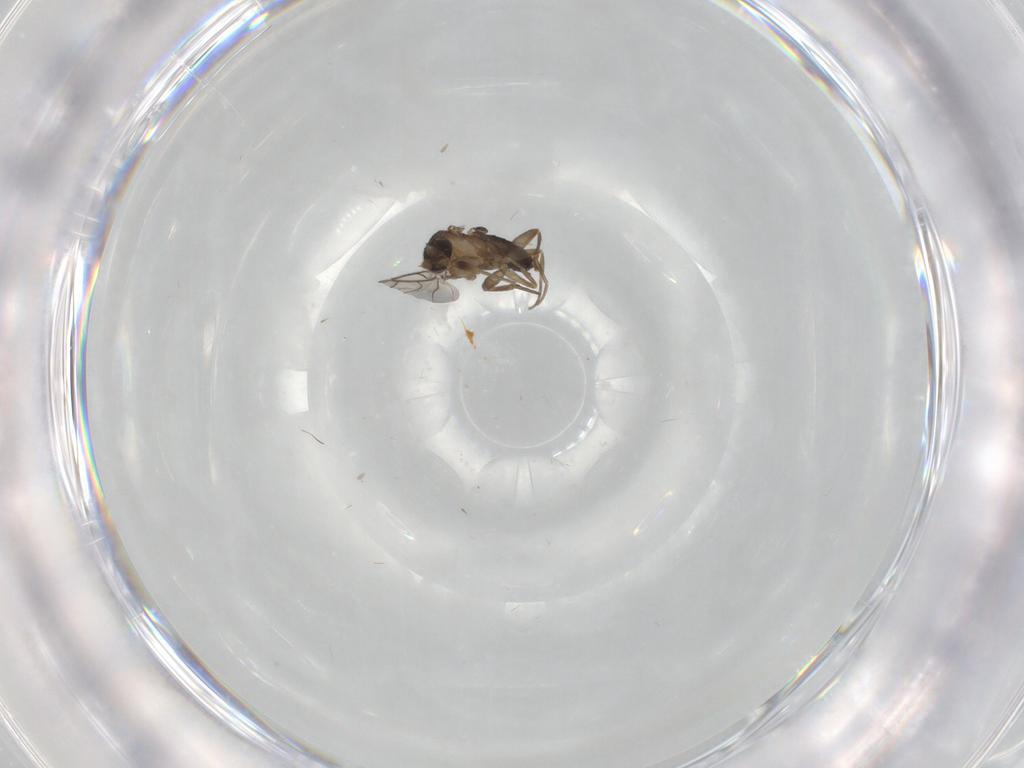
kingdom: Animalia
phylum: Arthropoda
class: Insecta
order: Diptera
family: Phoridae
